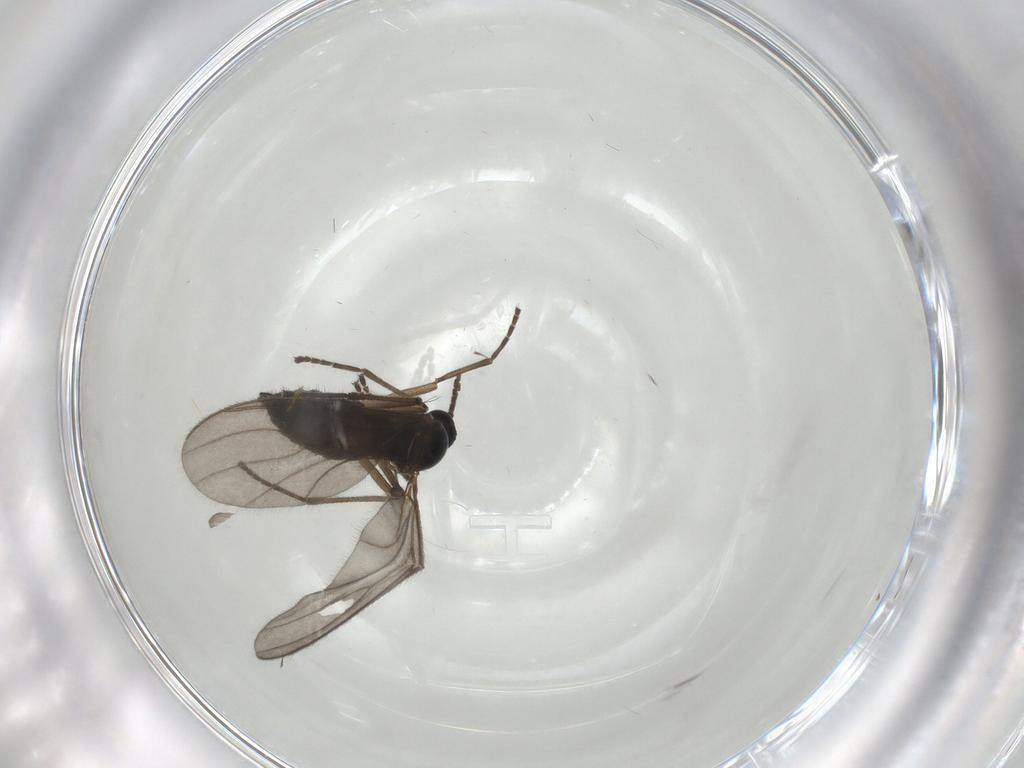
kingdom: Animalia
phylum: Arthropoda
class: Insecta
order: Diptera
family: Sciaridae
